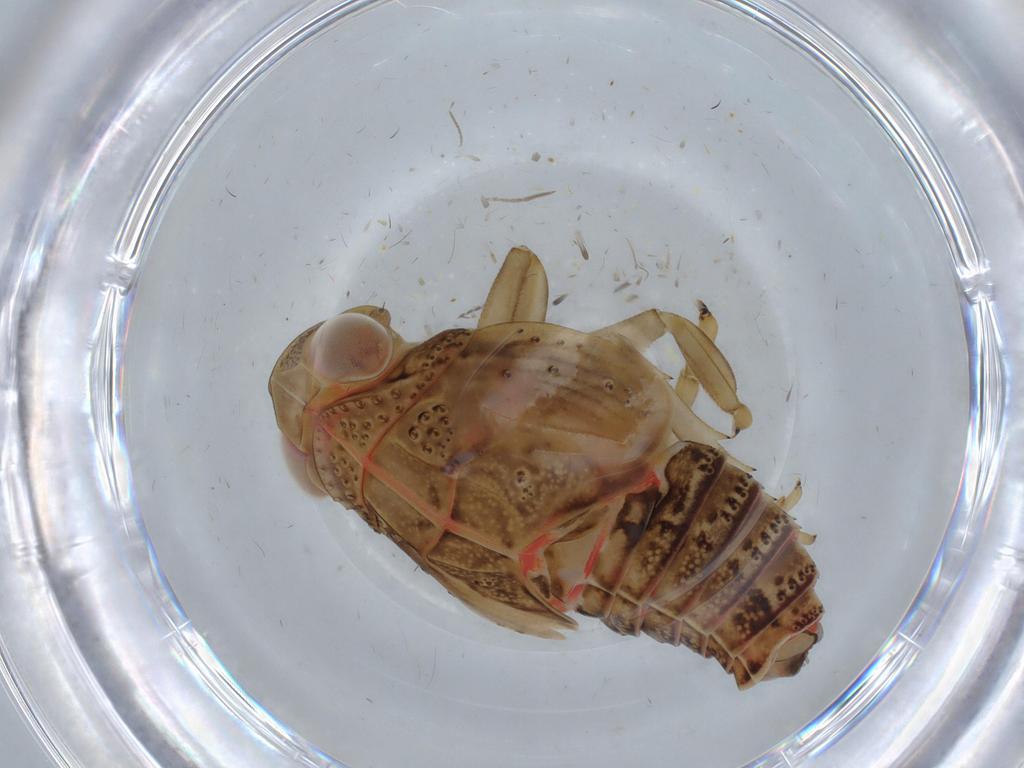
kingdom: Animalia
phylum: Arthropoda
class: Insecta
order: Hemiptera
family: Issidae
